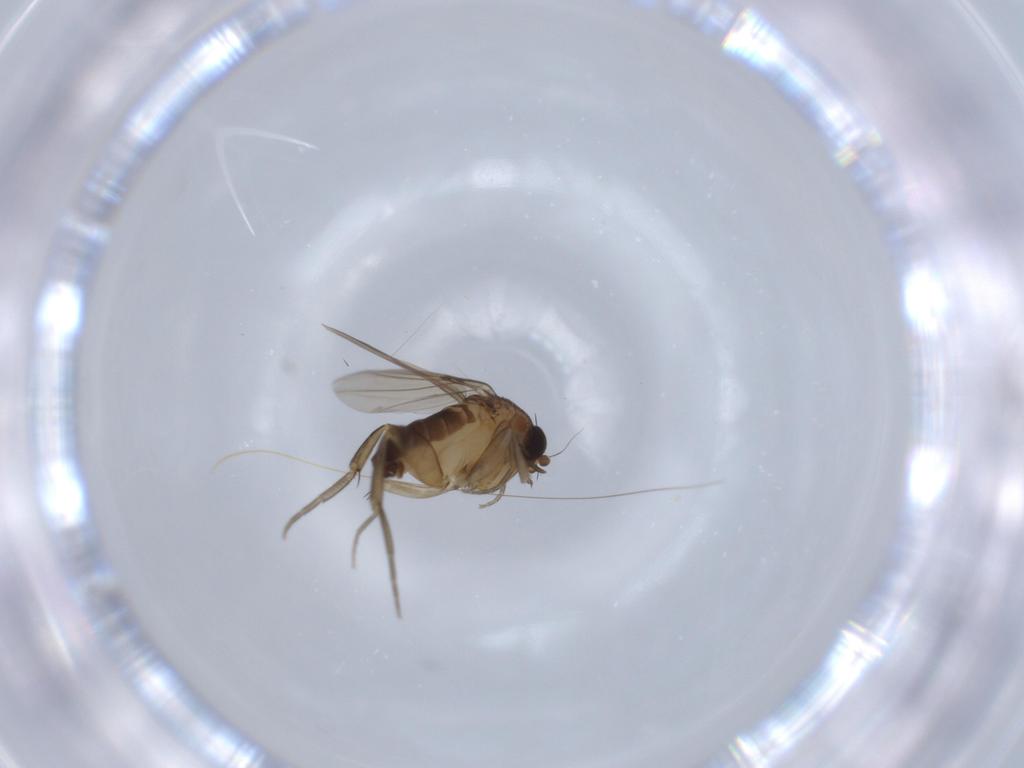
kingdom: Animalia
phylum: Arthropoda
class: Insecta
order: Diptera
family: Phoridae
